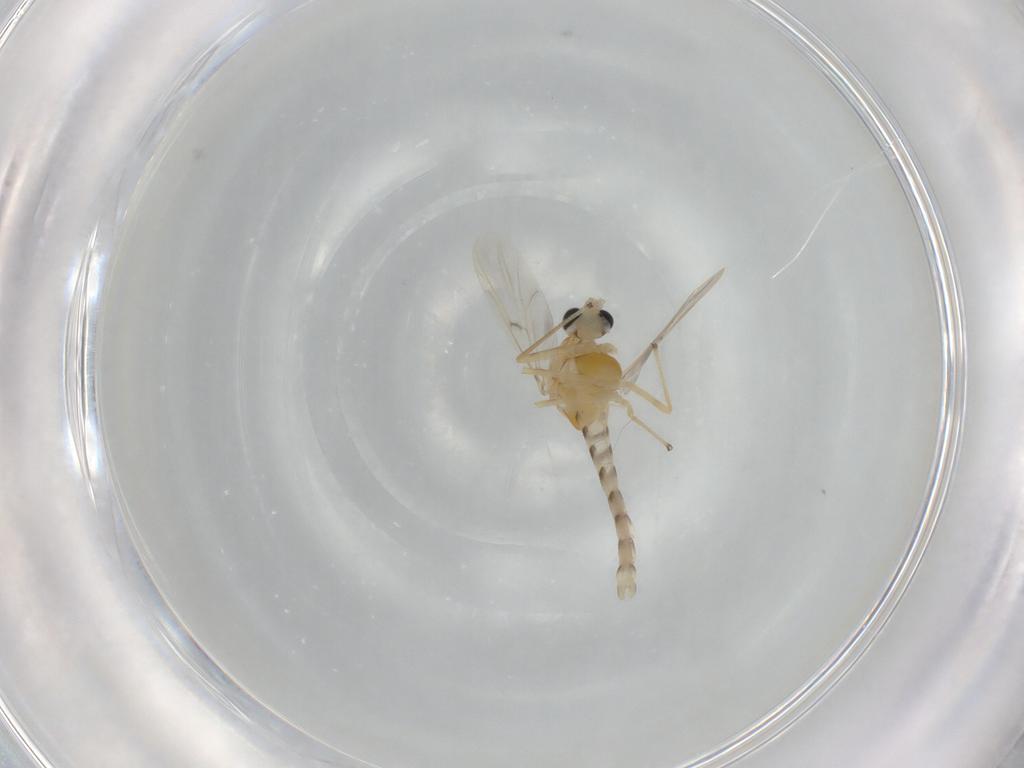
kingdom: Animalia
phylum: Arthropoda
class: Insecta
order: Diptera
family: Chironomidae
